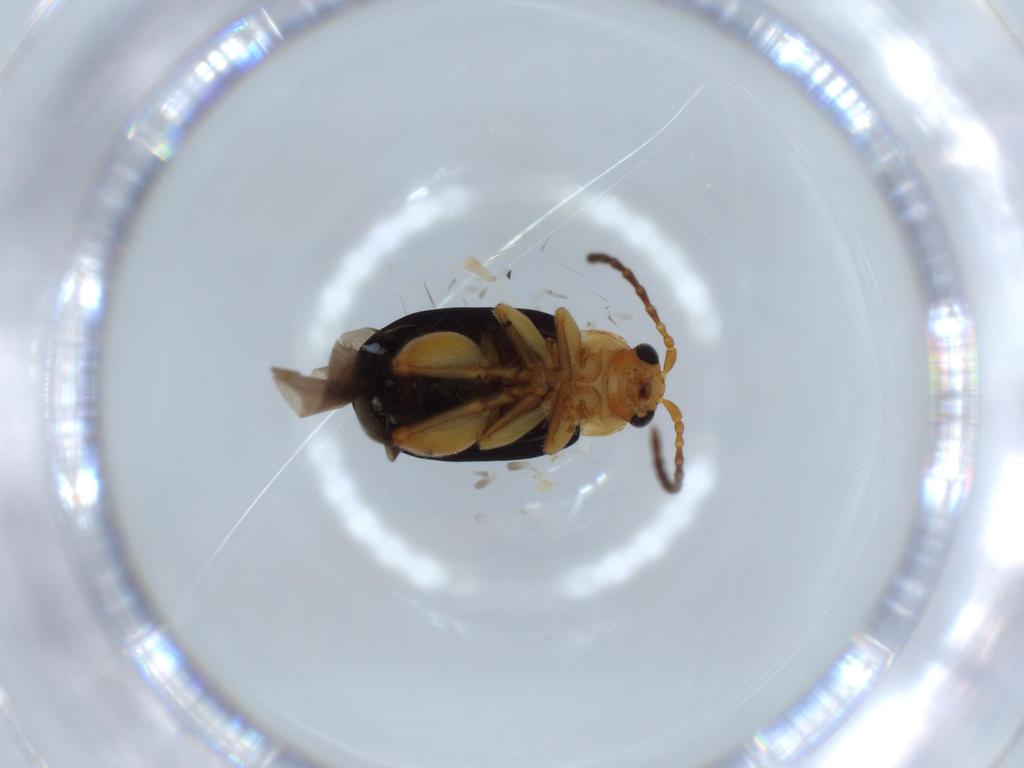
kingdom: Animalia
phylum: Arthropoda
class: Insecta
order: Coleoptera
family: Chrysomelidae
